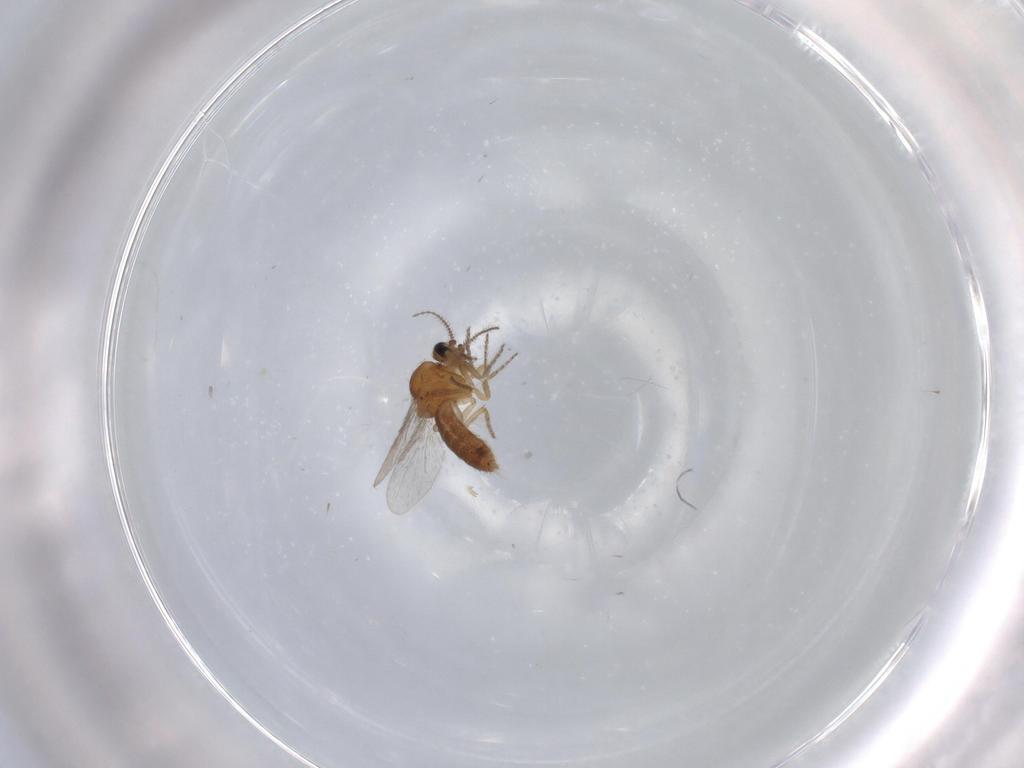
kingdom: Animalia
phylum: Arthropoda
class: Insecta
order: Diptera
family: Ceratopogonidae
